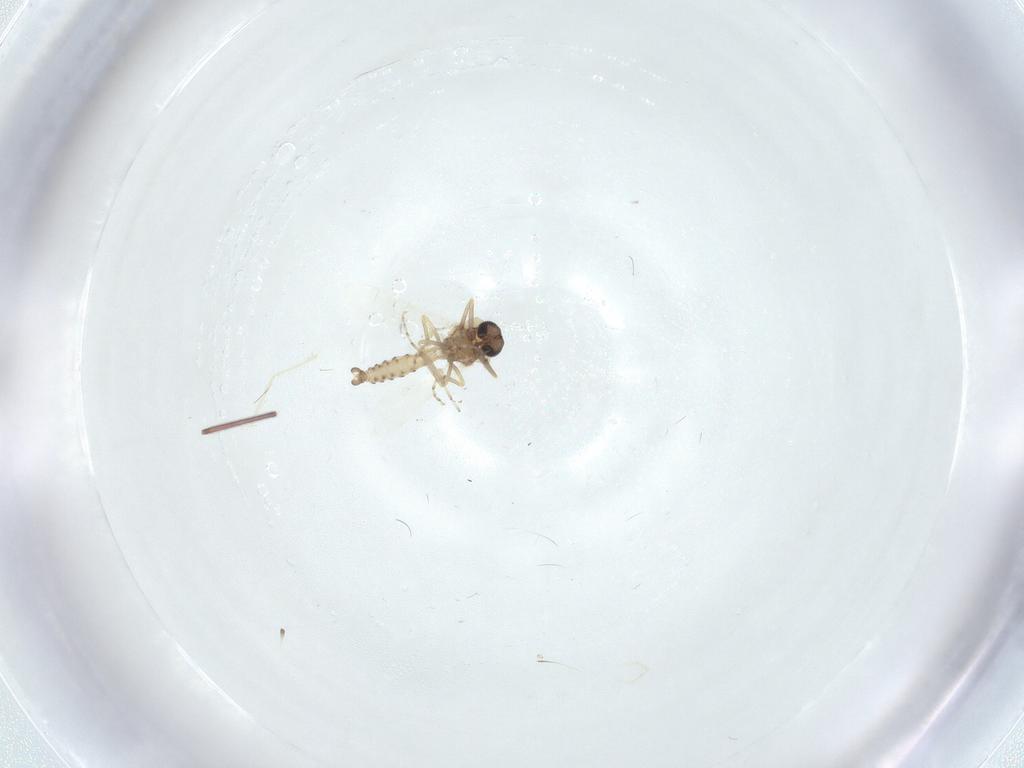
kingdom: Animalia
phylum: Arthropoda
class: Insecta
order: Diptera
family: Ceratopogonidae
